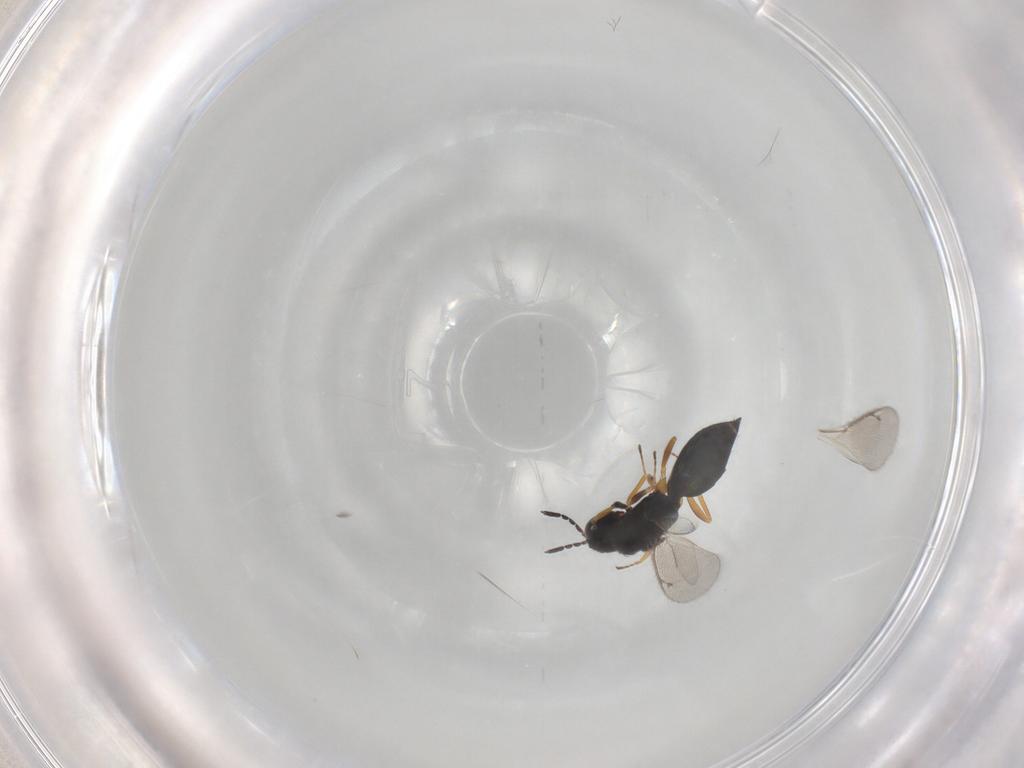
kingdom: Animalia
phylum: Arthropoda
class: Insecta
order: Hymenoptera
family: Eulophidae
